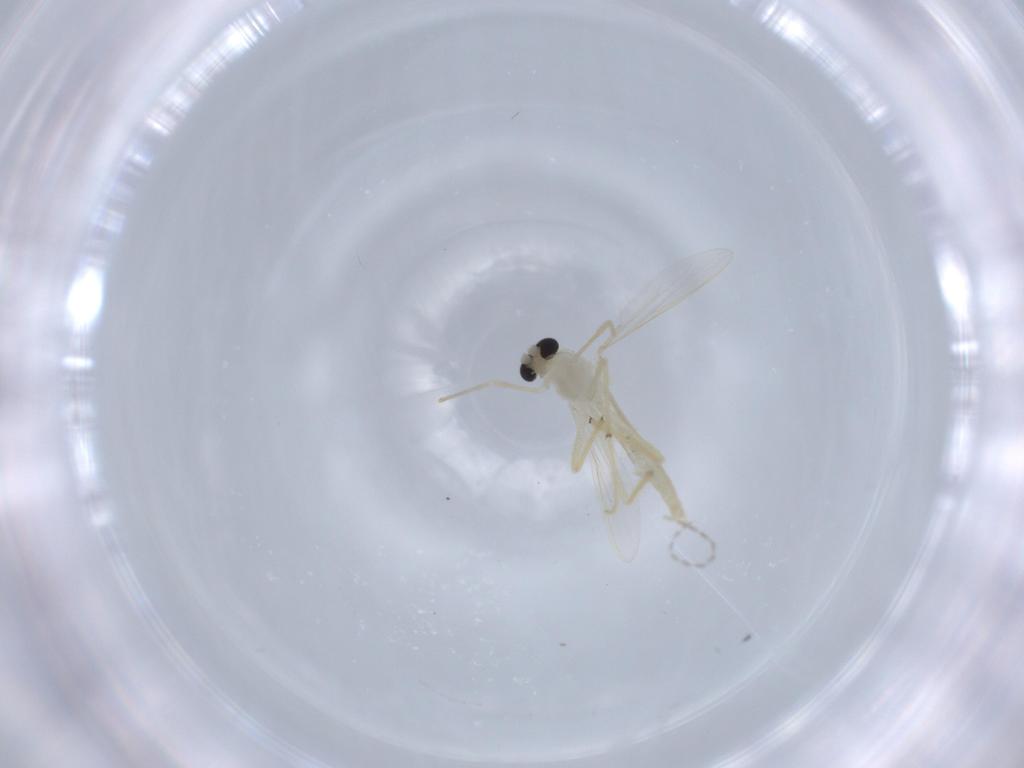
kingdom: Animalia
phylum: Arthropoda
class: Insecta
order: Diptera
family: Chironomidae
